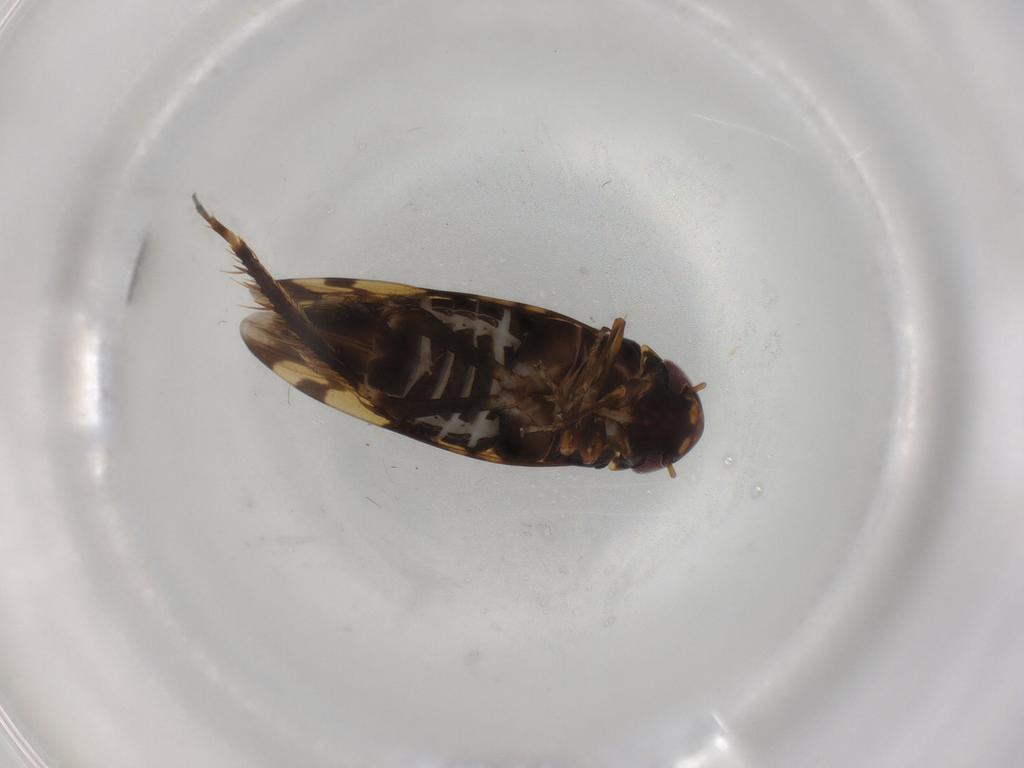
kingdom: Animalia
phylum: Arthropoda
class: Insecta
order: Hemiptera
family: Cicadellidae
